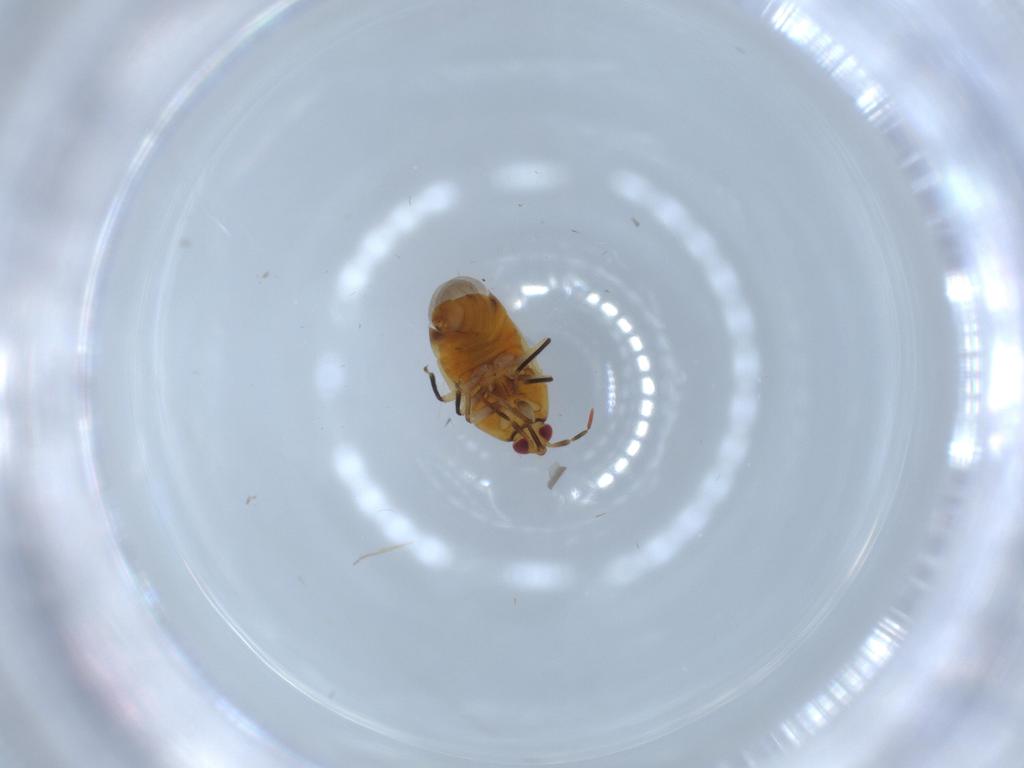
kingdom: Animalia
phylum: Arthropoda
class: Insecta
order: Hemiptera
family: Anthocoridae
